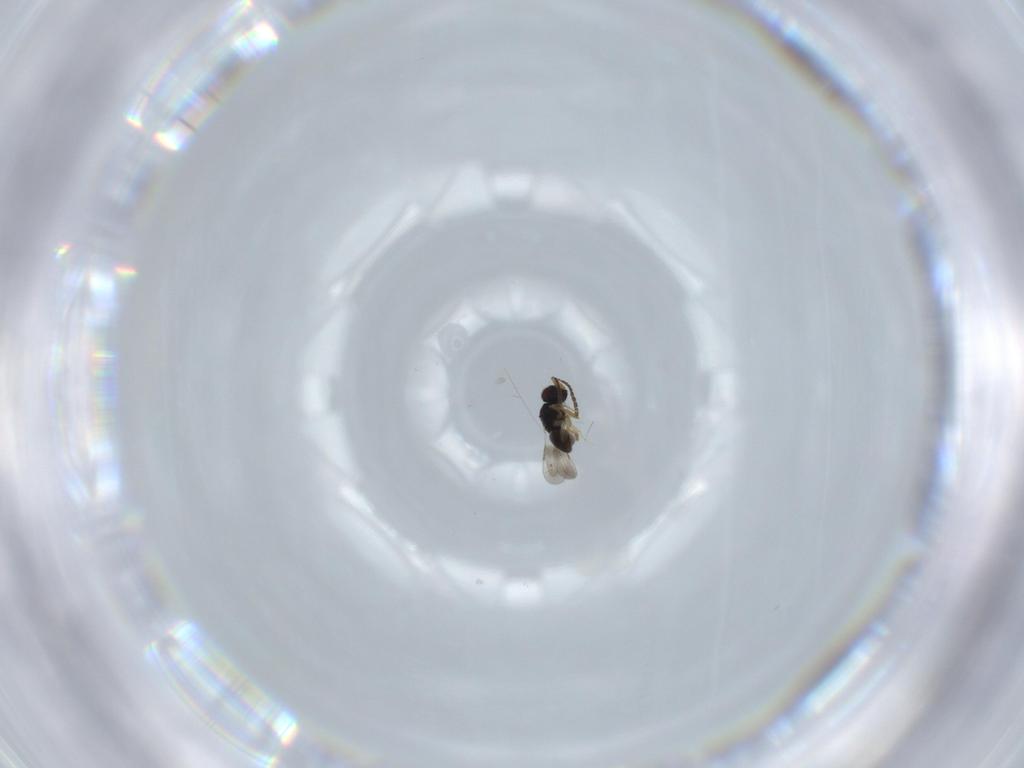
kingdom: Animalia
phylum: Arthropoda
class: Insecta
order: Hymenoptera
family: Ceraphronidae
